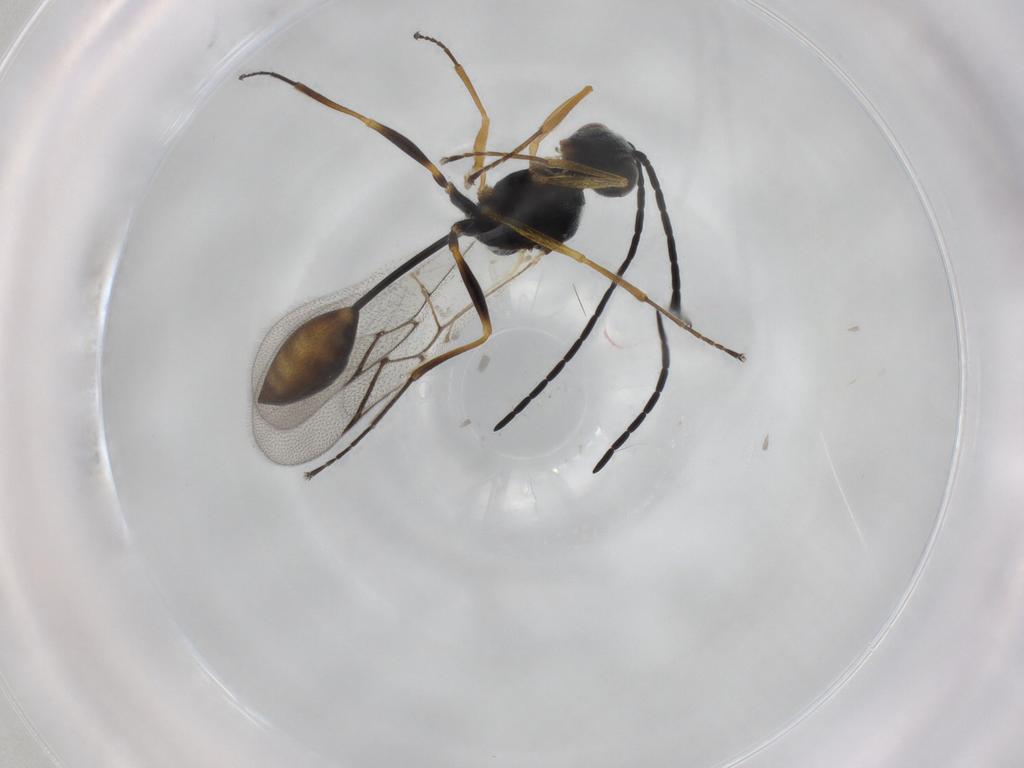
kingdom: Animalia
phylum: Arthropoda
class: Insecta
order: Hymenoptera
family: Figitidae
